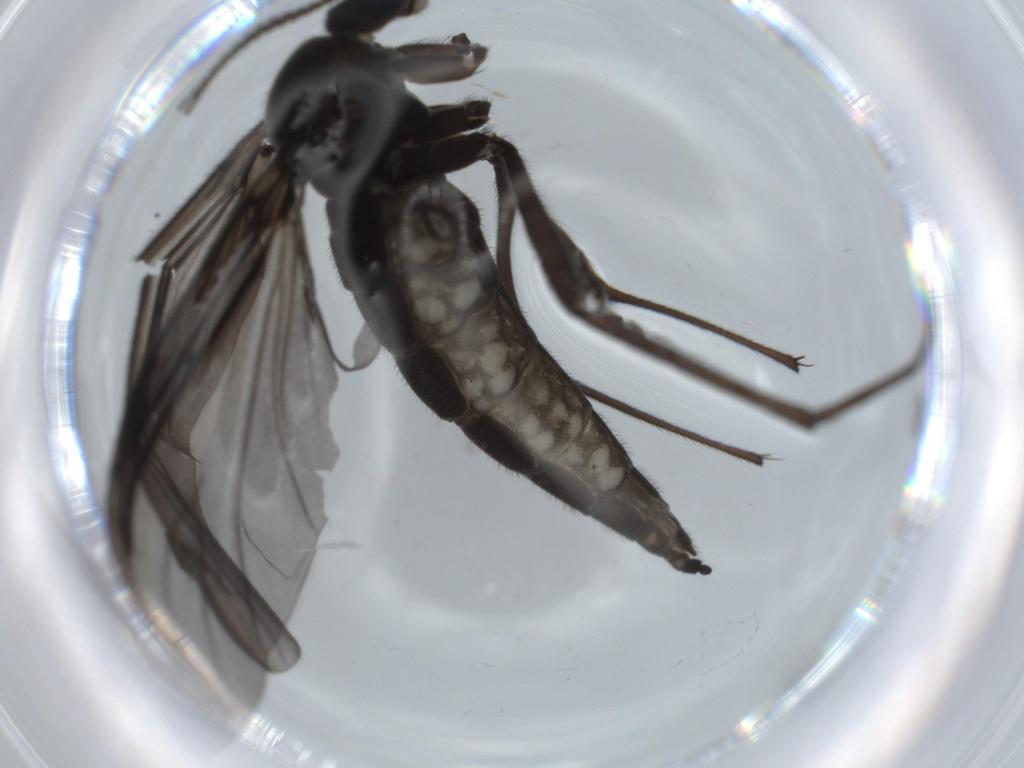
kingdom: Animalia
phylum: Arthropoda
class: Insecta
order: Diptera
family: Sciaridae
